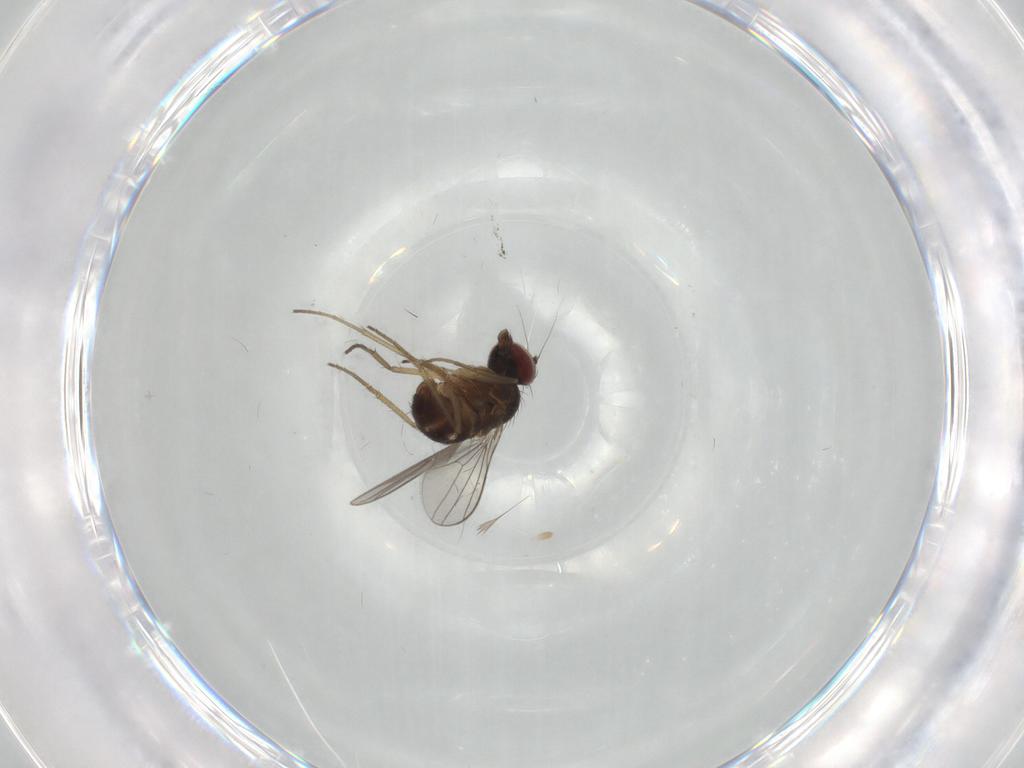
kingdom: Animalia
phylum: Arthropoda
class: Insecta
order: Diptera
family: Dolichopodidae
